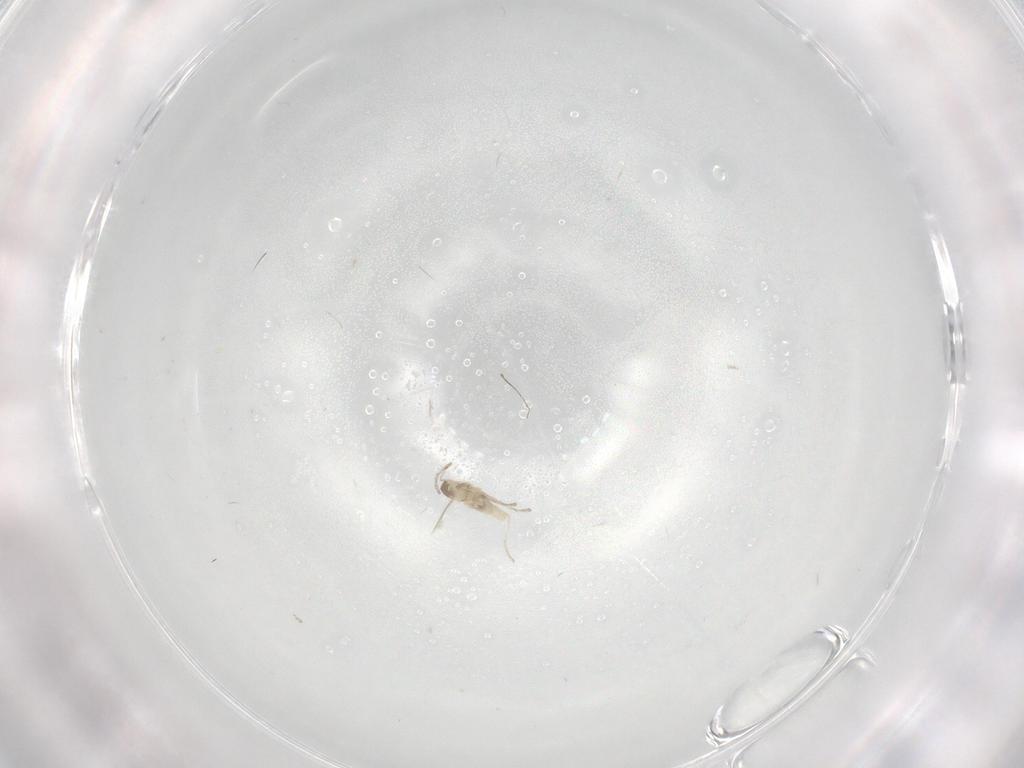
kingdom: Animalia
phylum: Arthropoda
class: Insecta
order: Diptera
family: Cecidomyiidae
